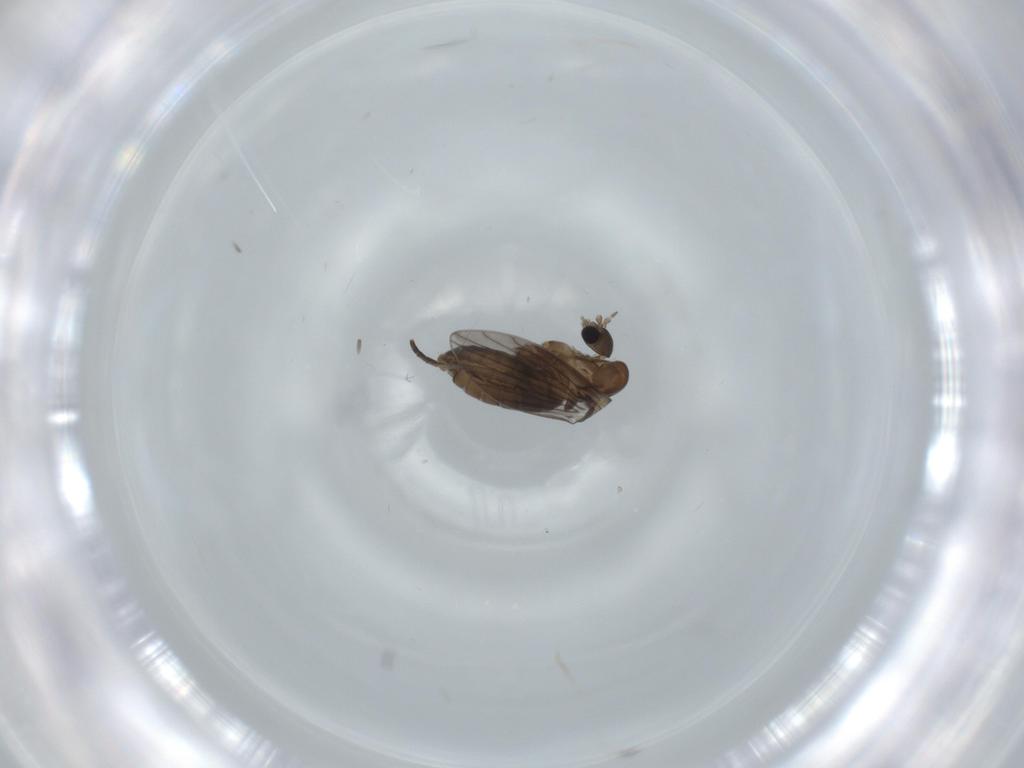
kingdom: Animalia
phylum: Arthropoda
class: Insecta
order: Diptera
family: Psychodidae
